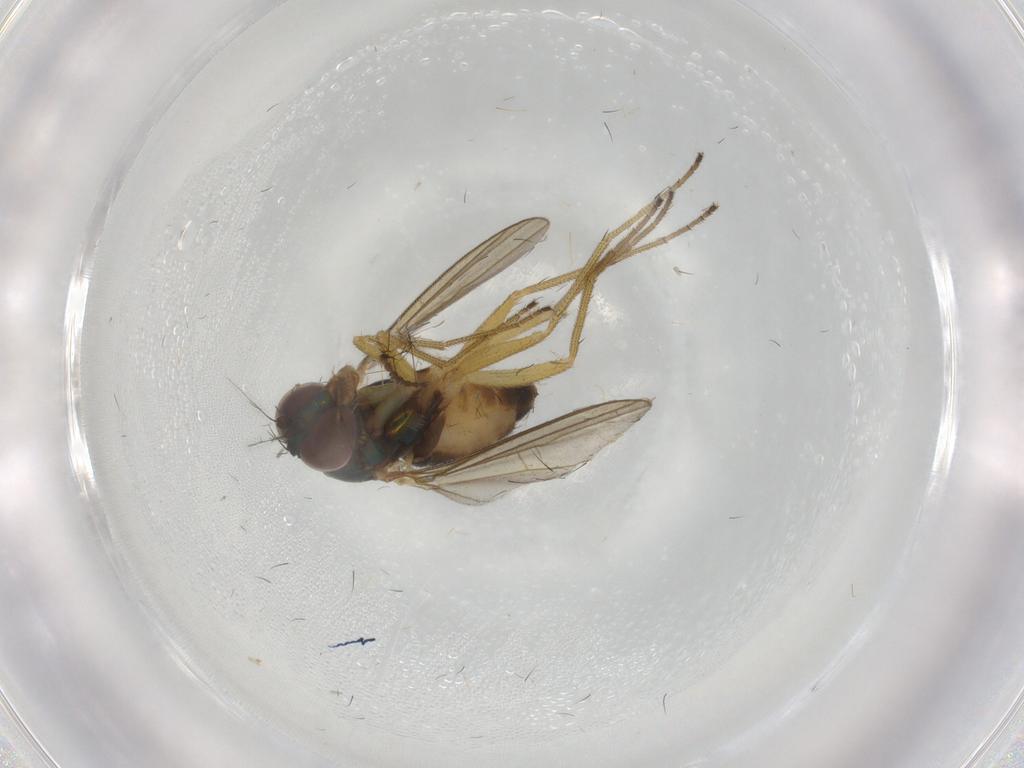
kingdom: Animalia
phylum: Arthropoda
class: Insecta
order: Diptera
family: Dolichopodidae
